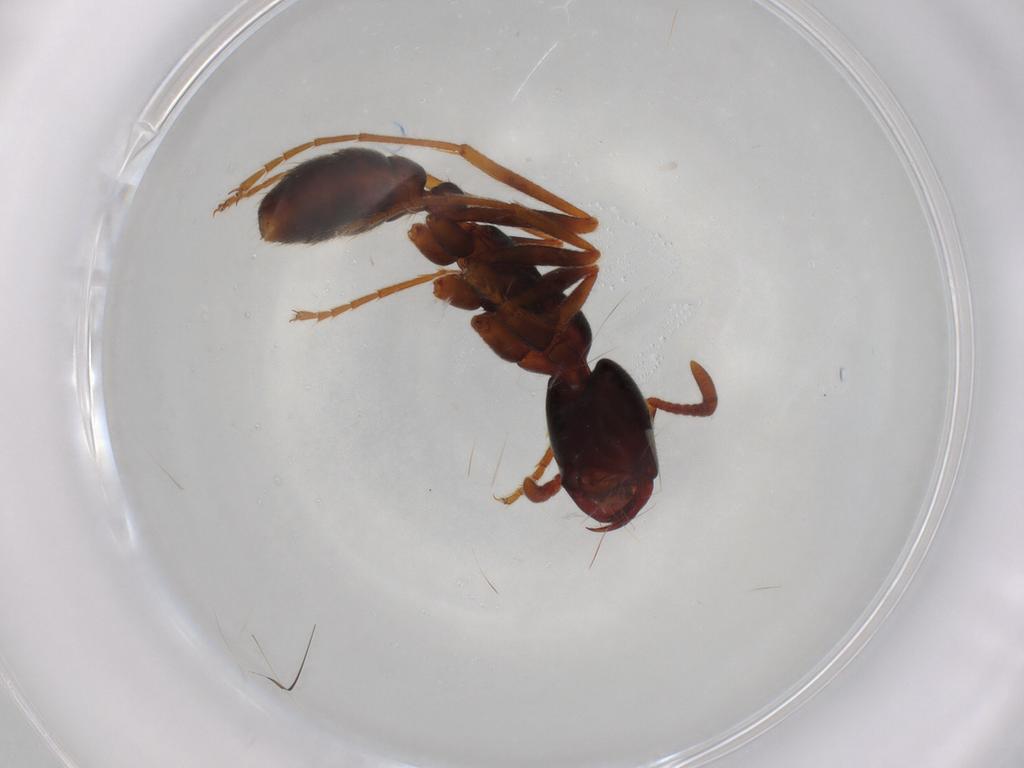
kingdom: Animalia
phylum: Arthropoda
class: Insecta
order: Hymenoptera
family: Formicidae
